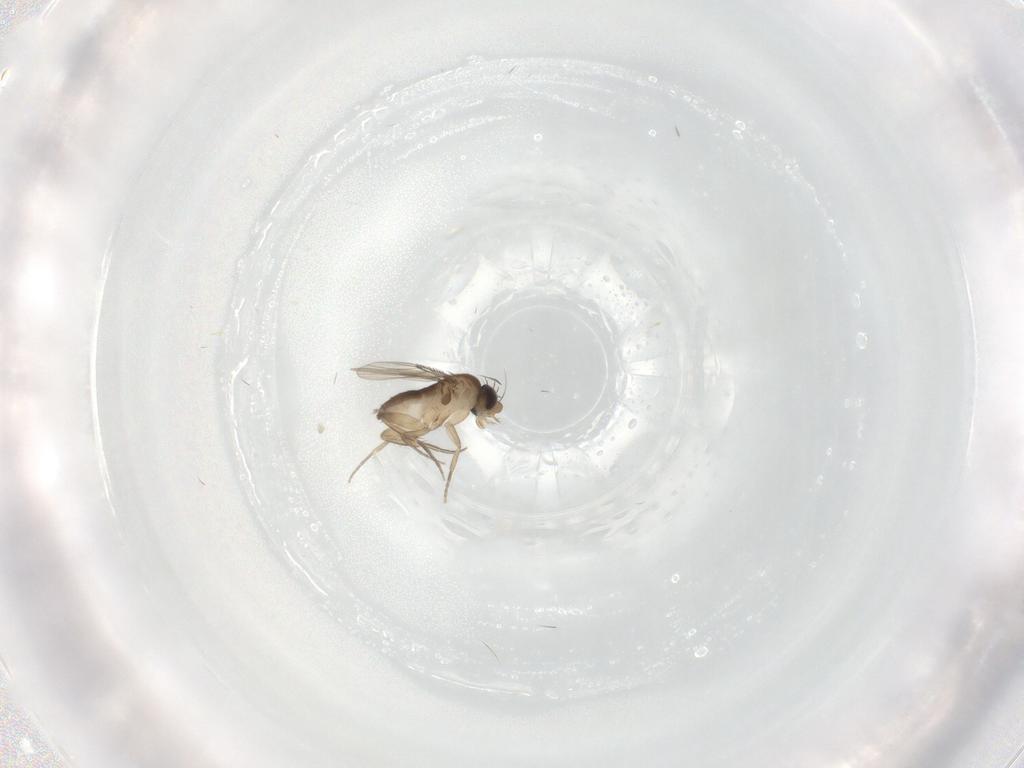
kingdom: Animalia
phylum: Arthropoda
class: Insecta
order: Diptera
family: Phoridae
